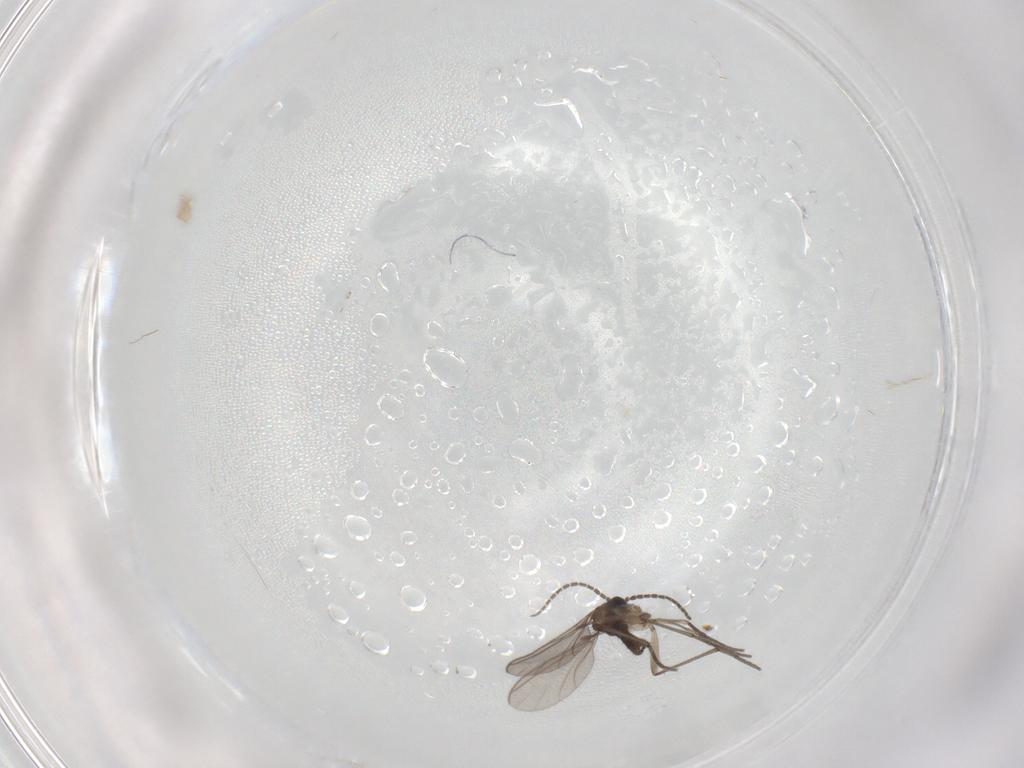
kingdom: Animalia
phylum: Arthropoda
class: Insecta
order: Diptera
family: Sciaridae
